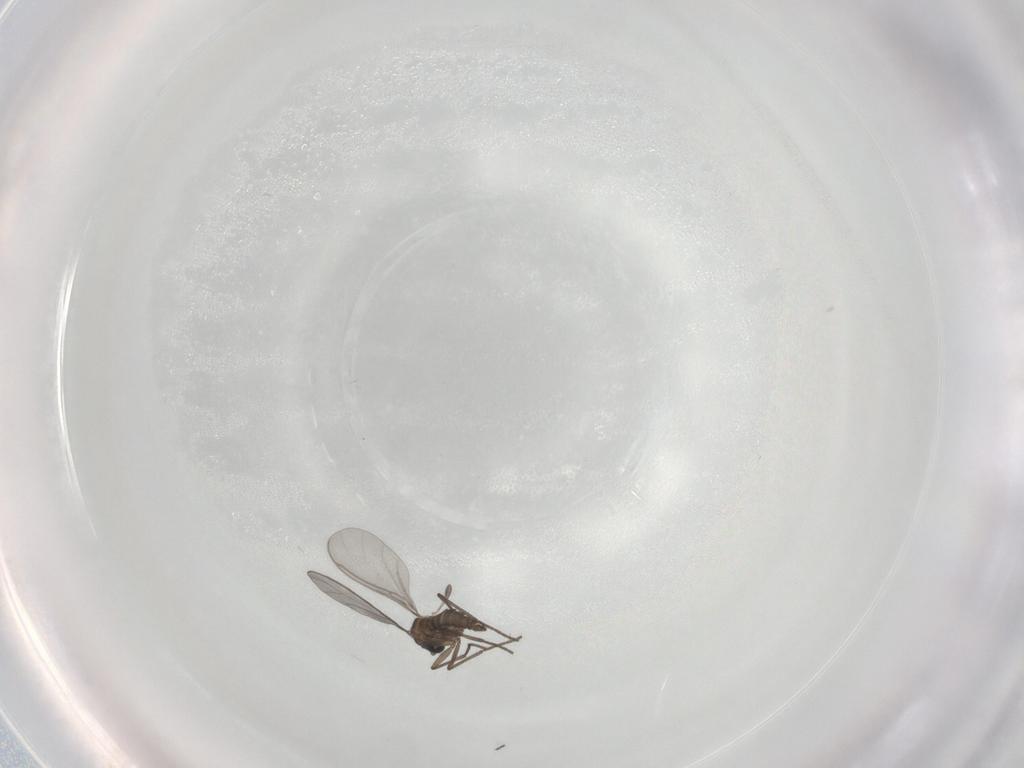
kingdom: Animalia
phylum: Arthropoda
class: Insecta
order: Diptera
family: Sciaridae
